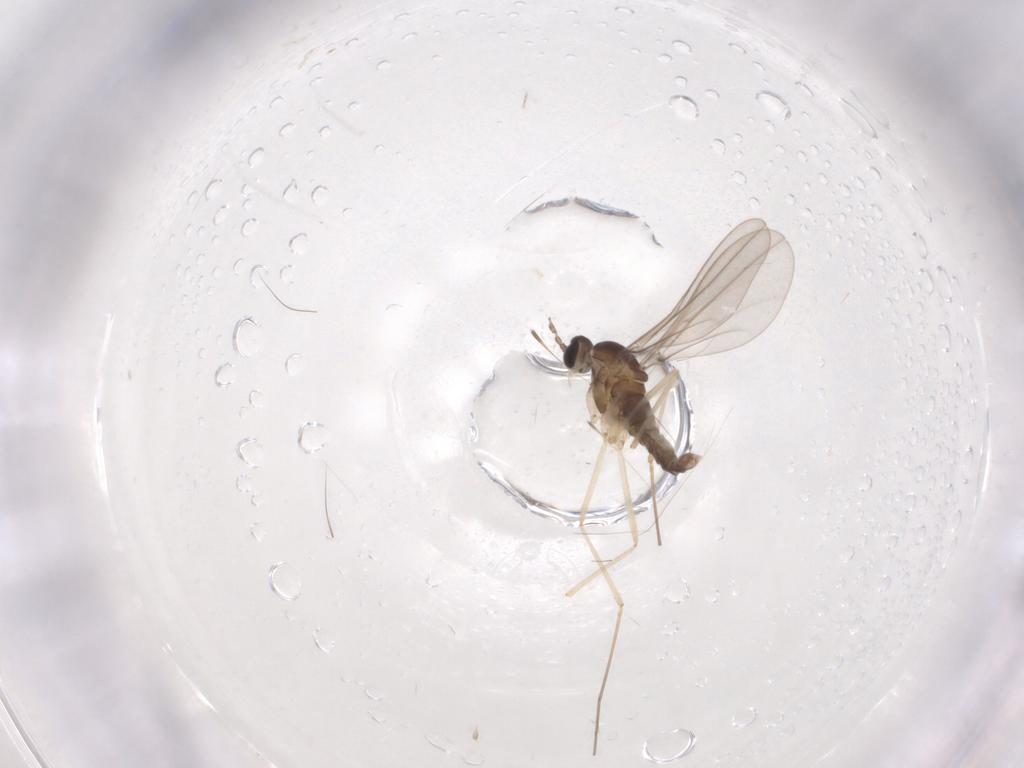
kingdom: Animalia
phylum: Arthropoda
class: Insecta
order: Diptera
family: Cecidomyiidae
